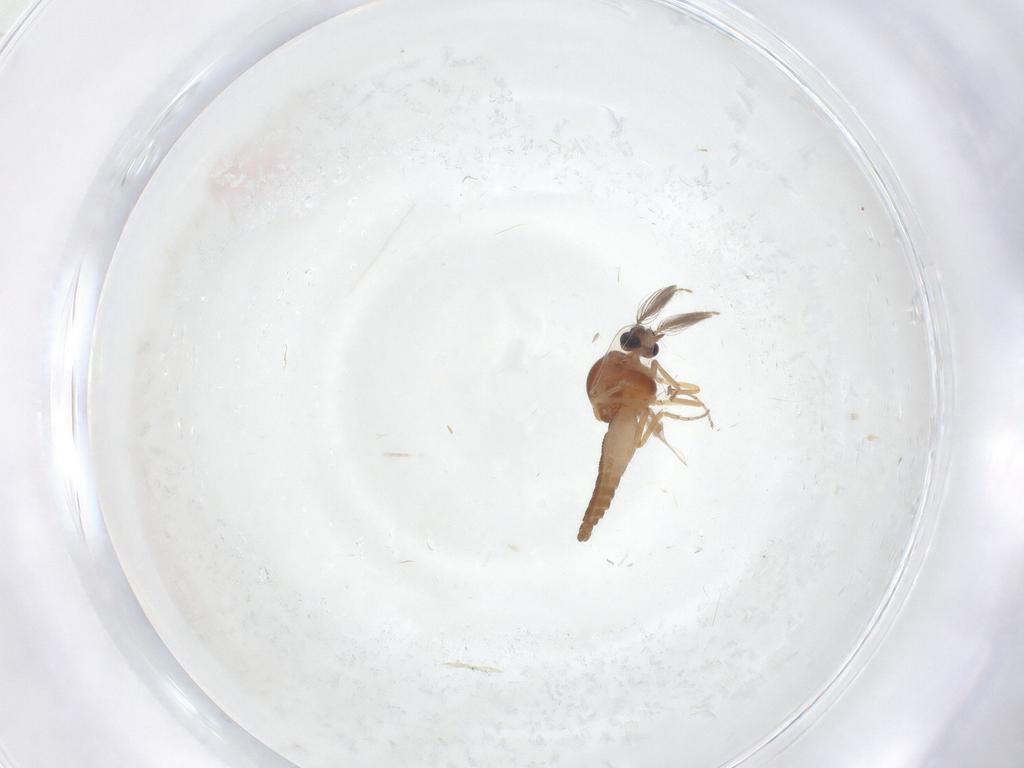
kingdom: Animalia
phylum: Arthropoda
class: Insecta
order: Diptera
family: Ceratopogonidae
